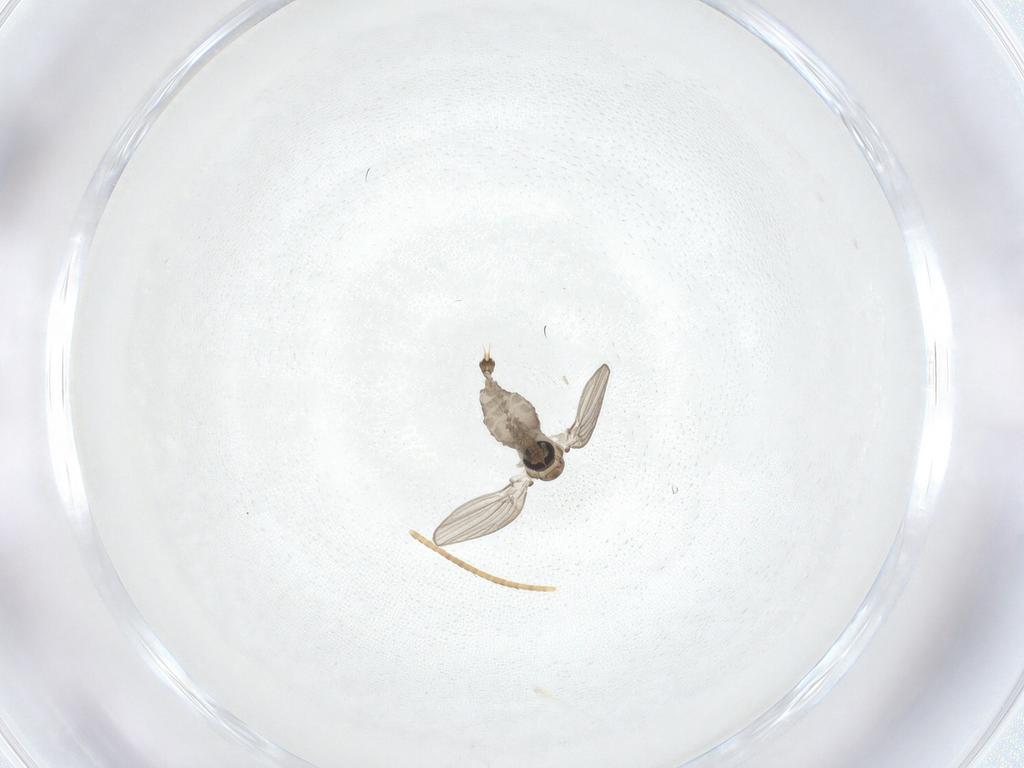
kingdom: Animalia
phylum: Arthropoda
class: Insecta
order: Diptera
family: Psychodidae
